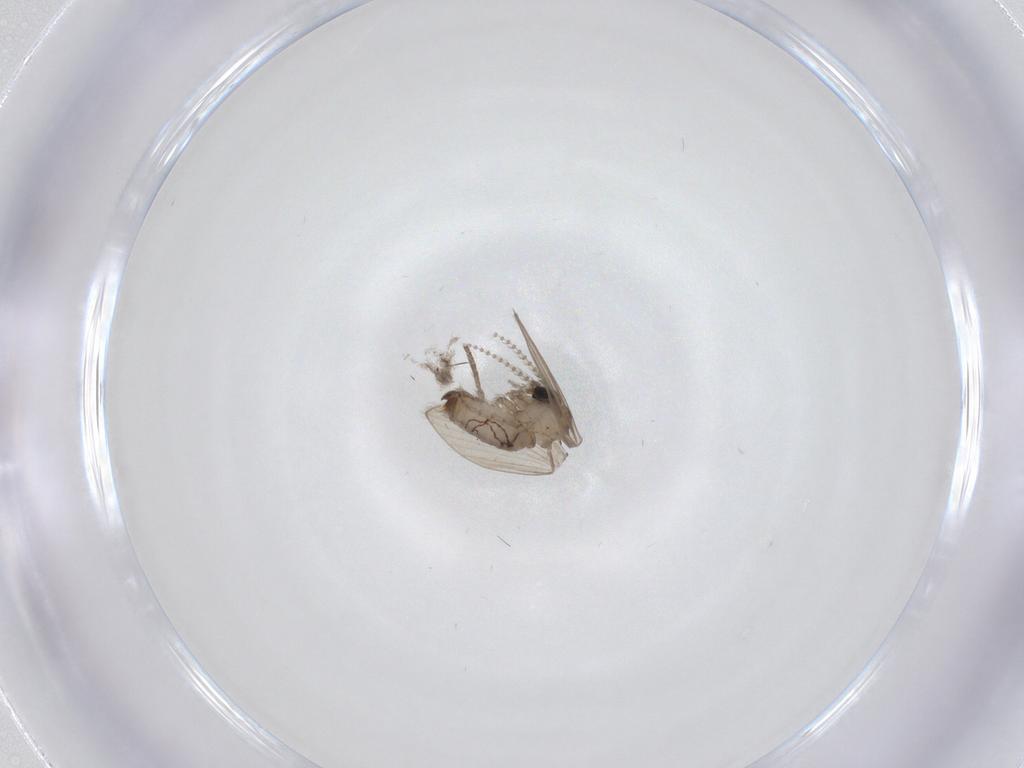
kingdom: Animalia
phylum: Arthropoda
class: Insecta
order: Diptera
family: Psychodidae
